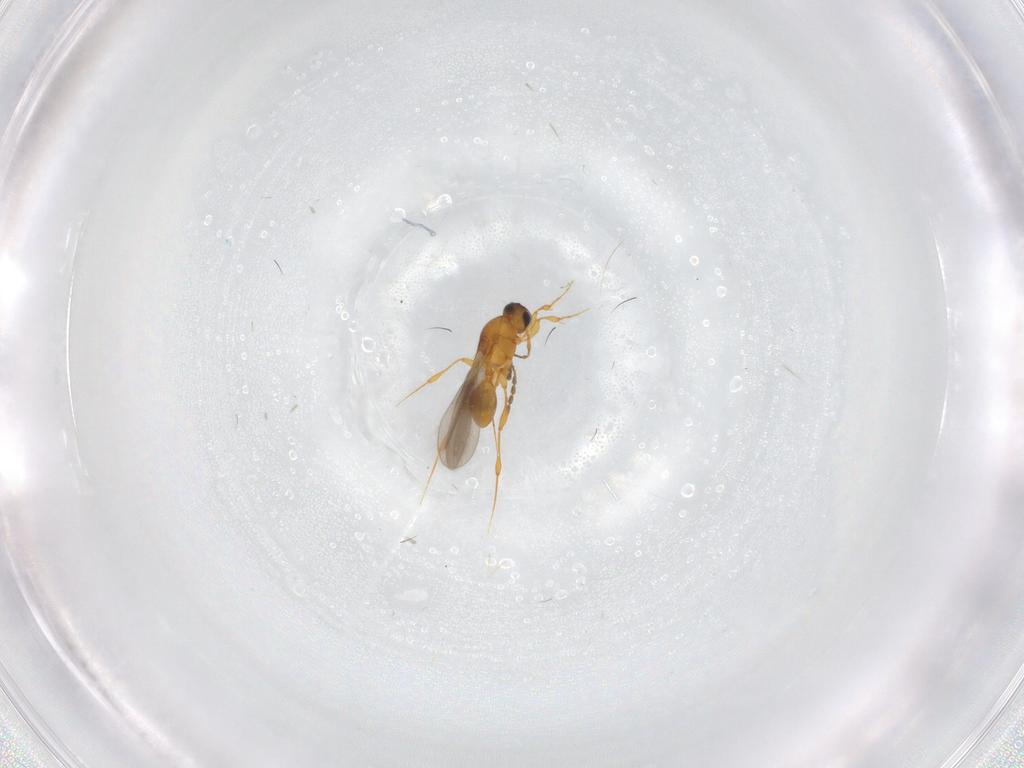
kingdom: Animalia
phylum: Arthropoda
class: Insecta
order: Hymenoptera
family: Platygastridae
